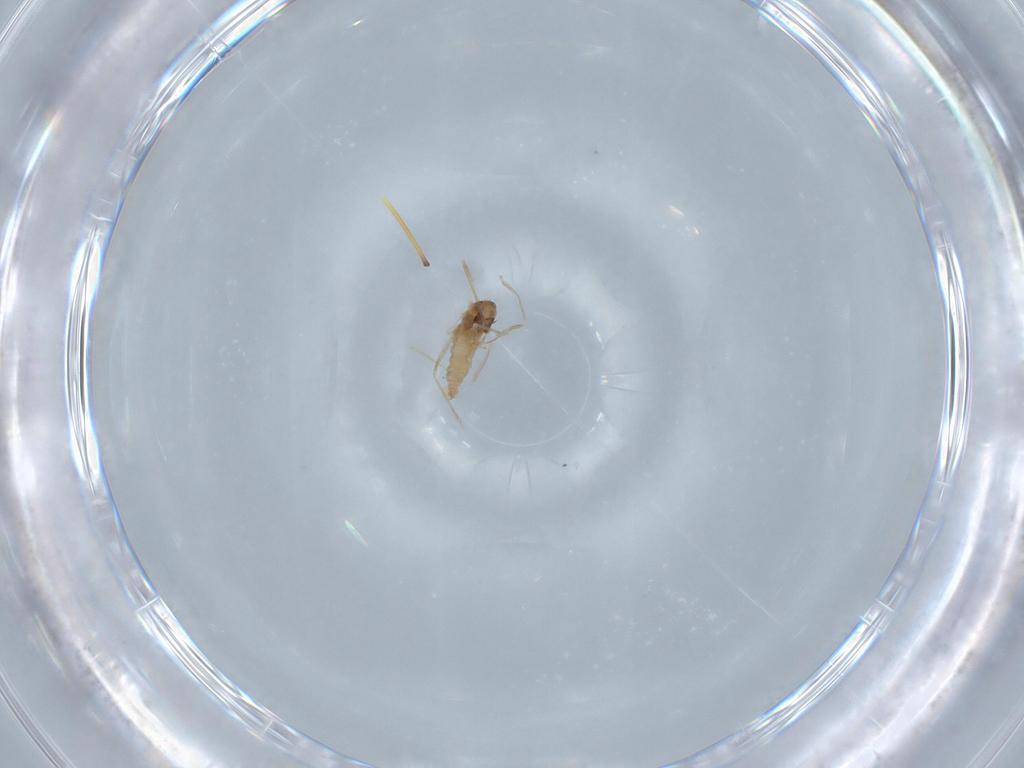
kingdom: Animalia
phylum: Arthropoda
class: Insecta
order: Diptera
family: Cecidomyiidae
